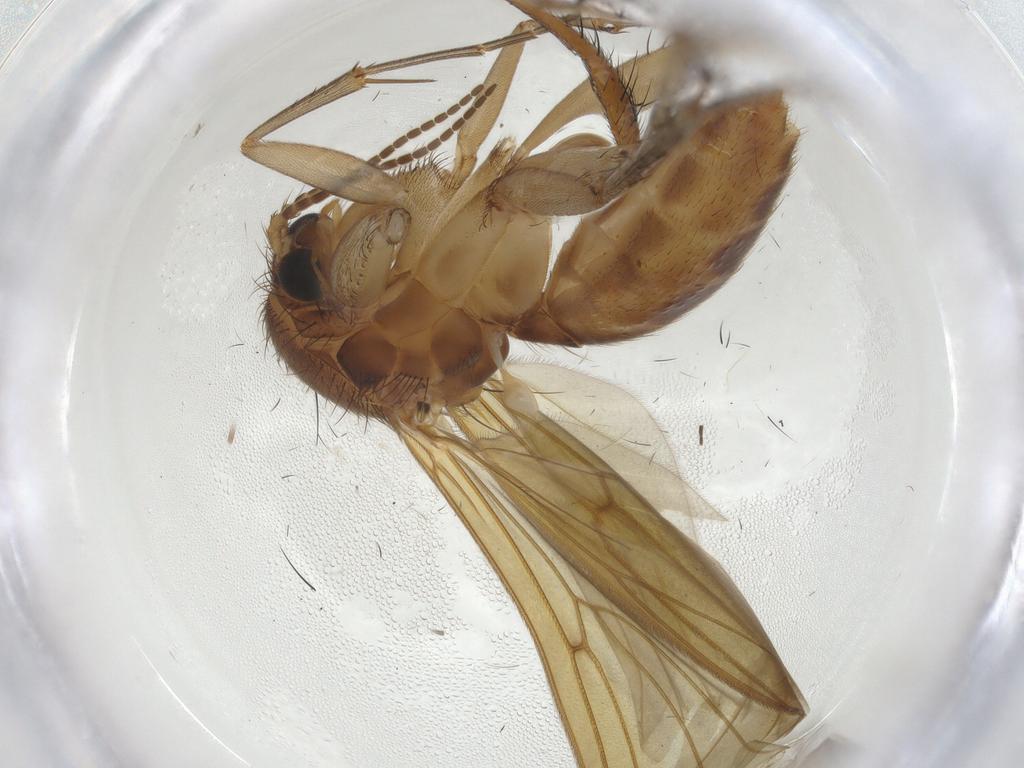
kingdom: Animalia
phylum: Arthropoda
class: Insecta
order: Diptera
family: Mycetophilidae
